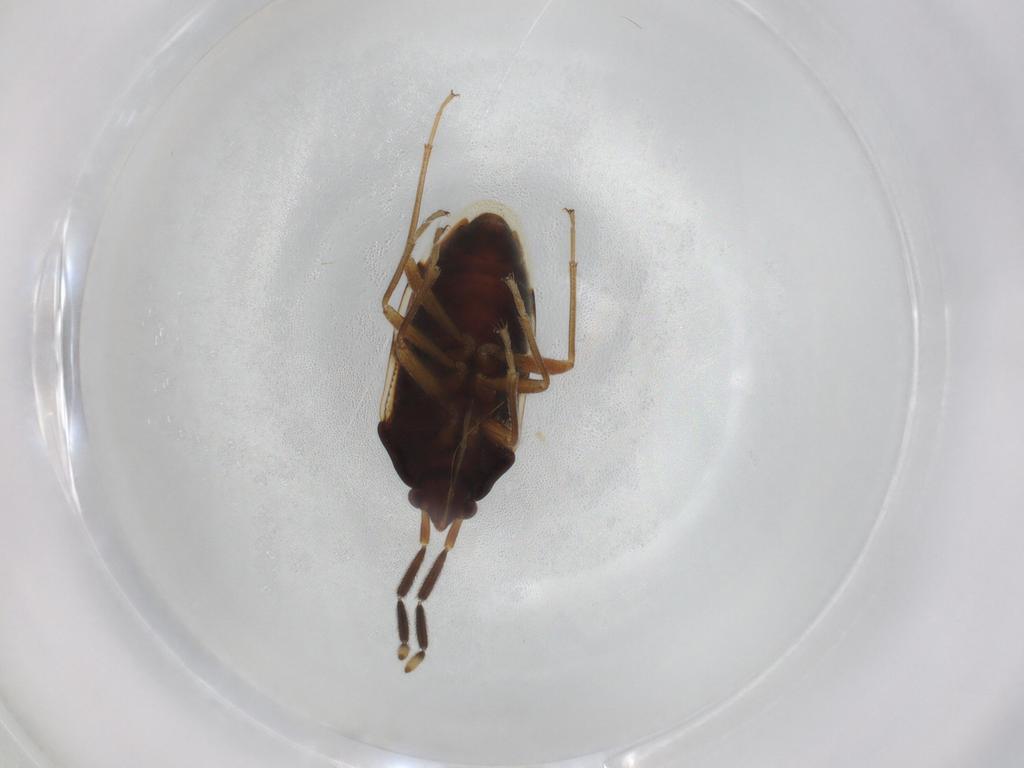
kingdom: Animalia
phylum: Arthropoda
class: Insecta
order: Hemiptera
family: Rhyparochromidae
